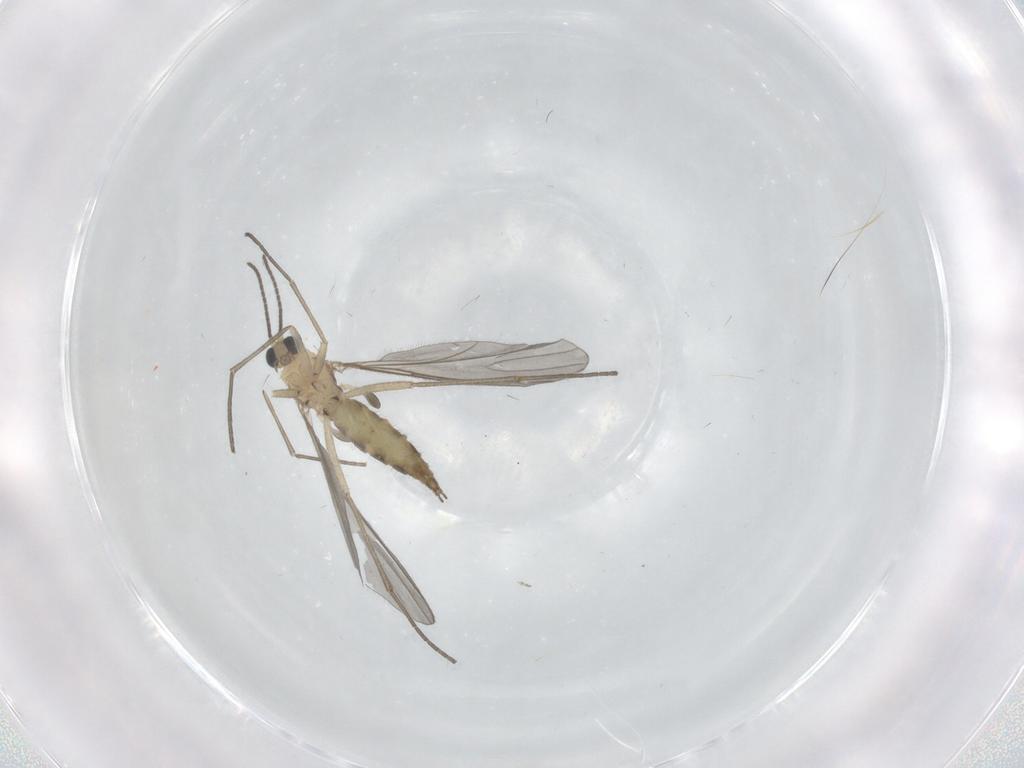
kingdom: Animalia
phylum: Arthropoda
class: Insecta
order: Diptera
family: Sciaridae
